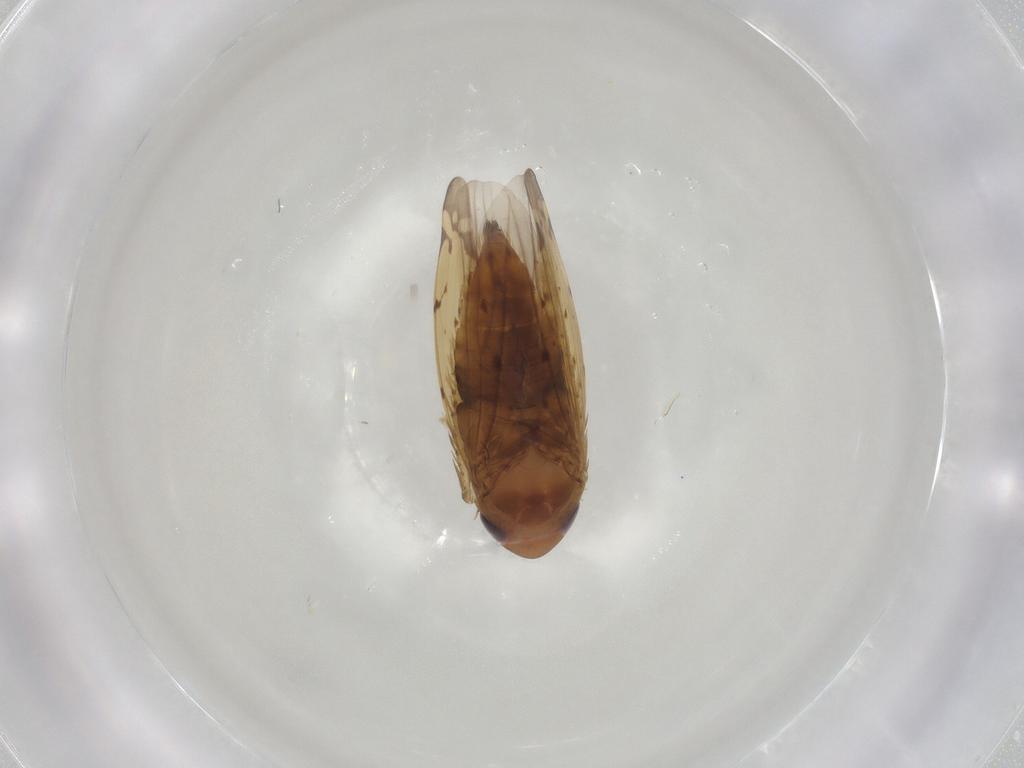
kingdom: Animalia
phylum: Arthropoda
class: Insecta
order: Hemiptera
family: Cicadellidae
